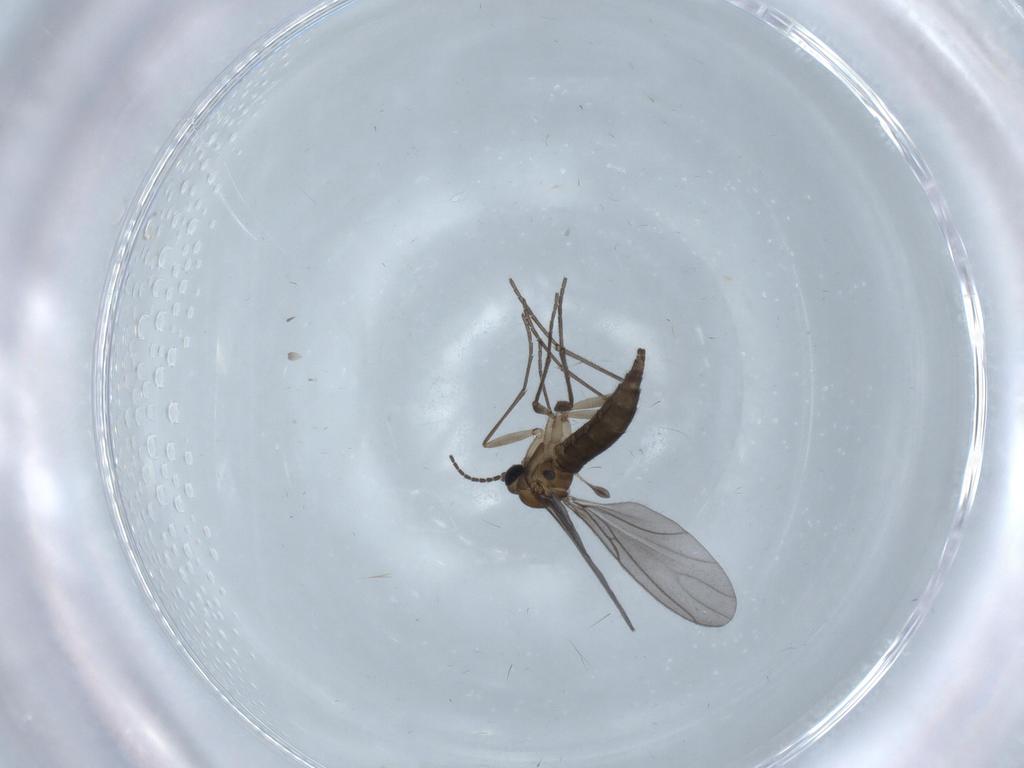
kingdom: Animalia
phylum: Arthropoda
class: Insecta
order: Diptera
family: Sciaridae
